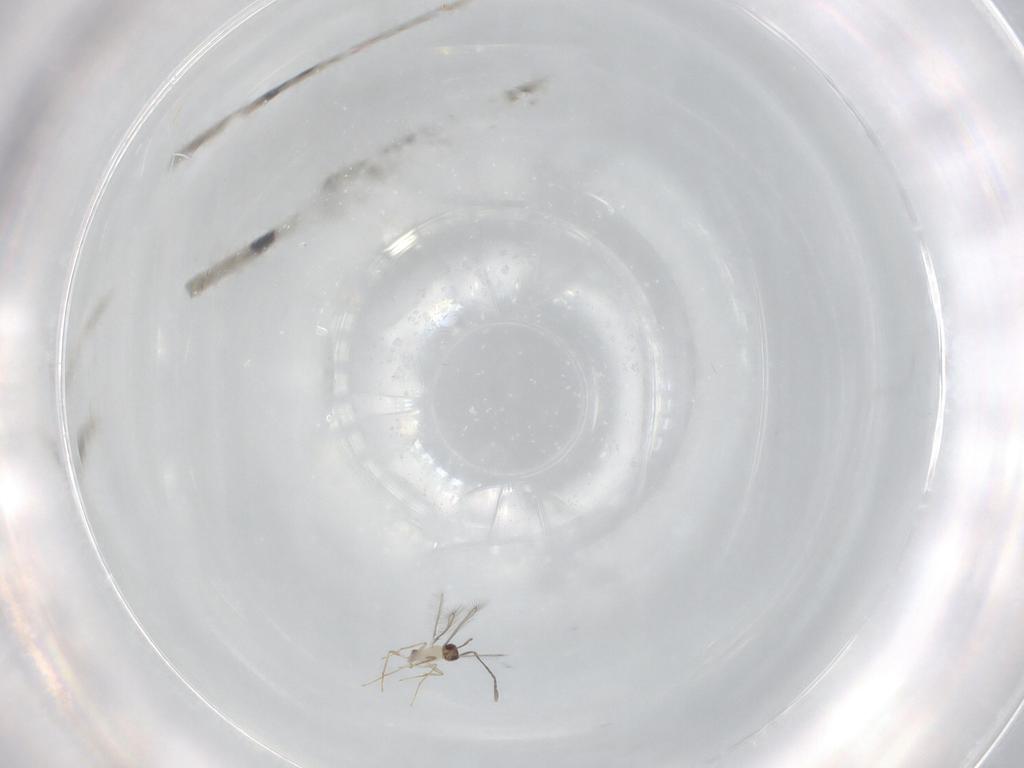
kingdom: Animalia
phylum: Arthropoda
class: Insecta
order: Hymenoptera
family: Mymaridae
